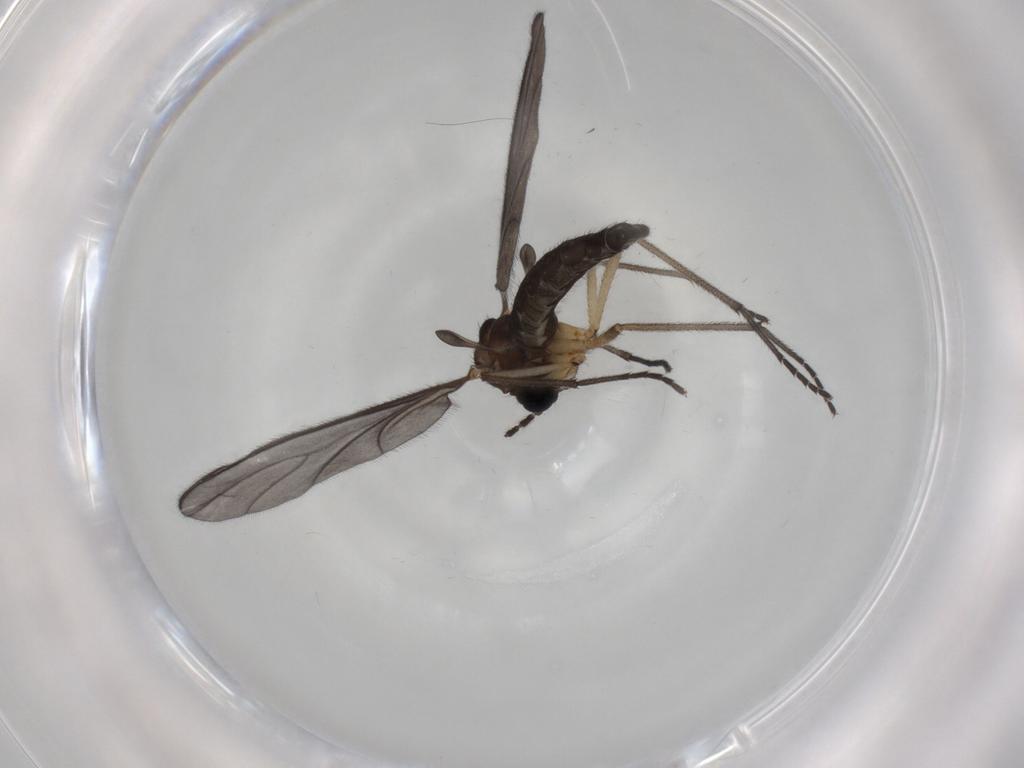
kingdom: Animalia
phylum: Arthropoda
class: Insecta
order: Diptera
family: Sciaridae
